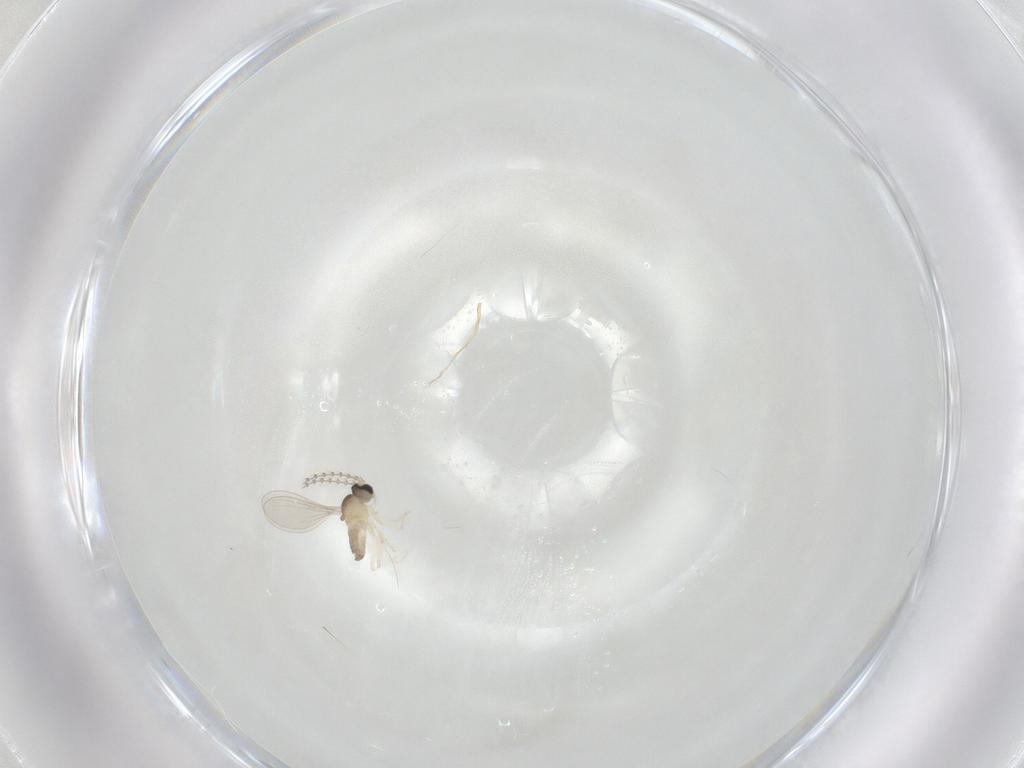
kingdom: Animalia
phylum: Arthropoda
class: Insecta
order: Diptera
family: Cecidomyiidae
